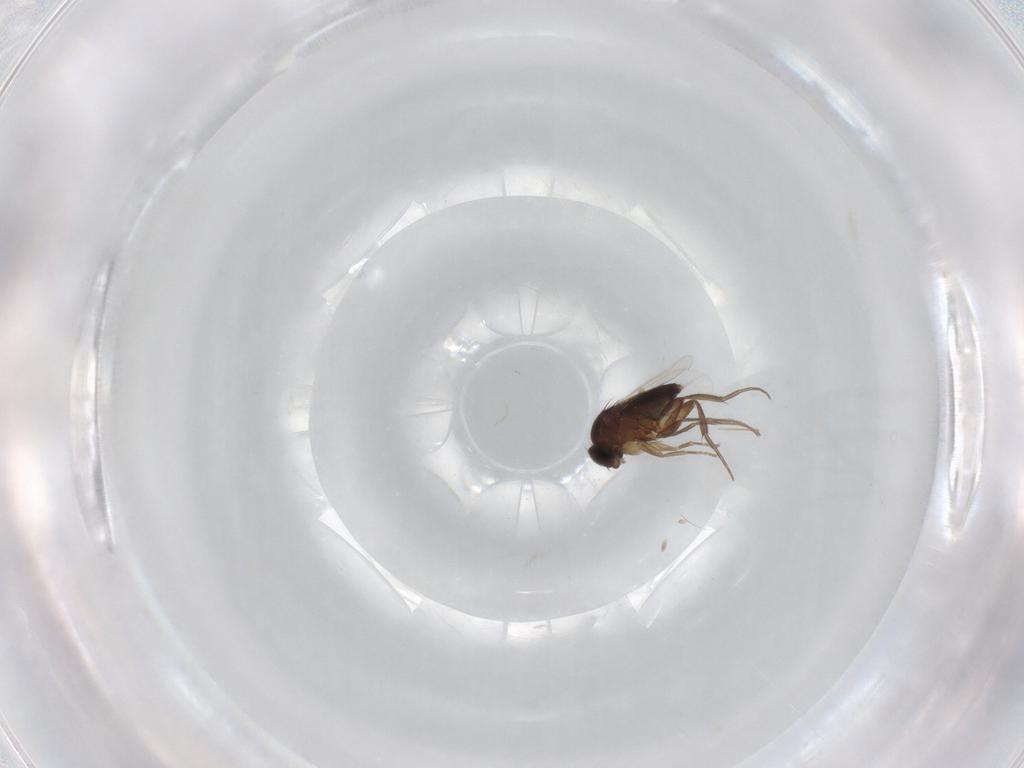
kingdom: Animalia
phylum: Arthropoda
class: Insecta
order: Diptera
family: Phoridae
